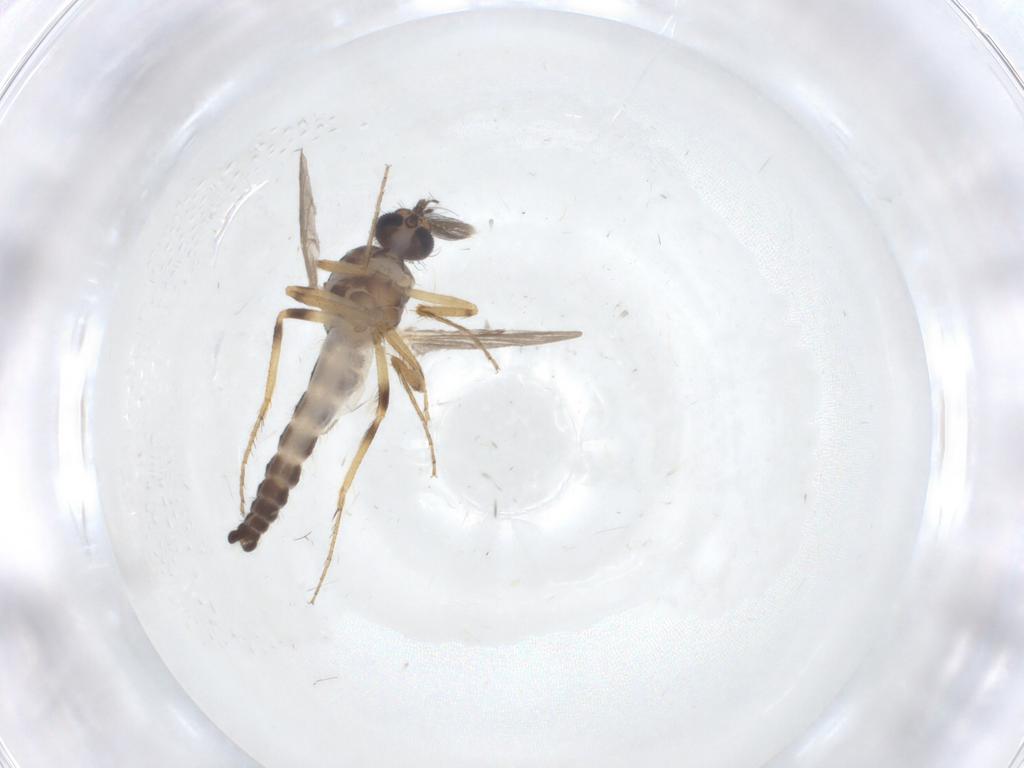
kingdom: Animalia
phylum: Arthropoda
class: Insecta
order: Diptera
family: Ceratopogonidae
